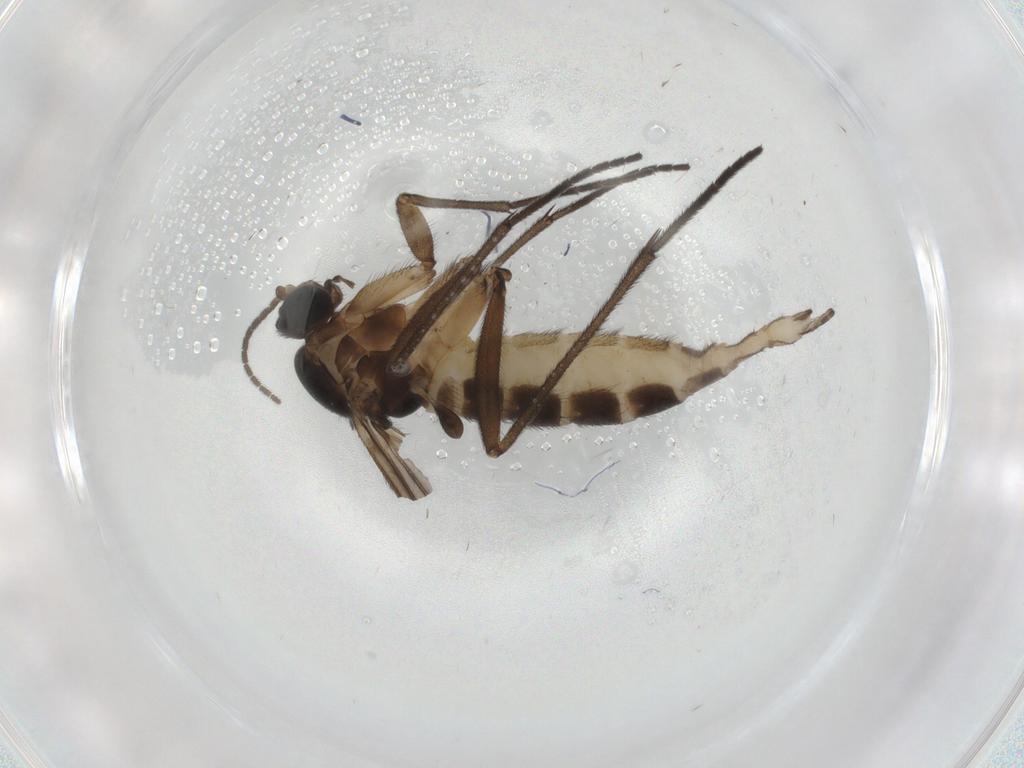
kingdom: Animalia
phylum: Arthropoda
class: Insecta
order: Diptera
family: Sciaridae
